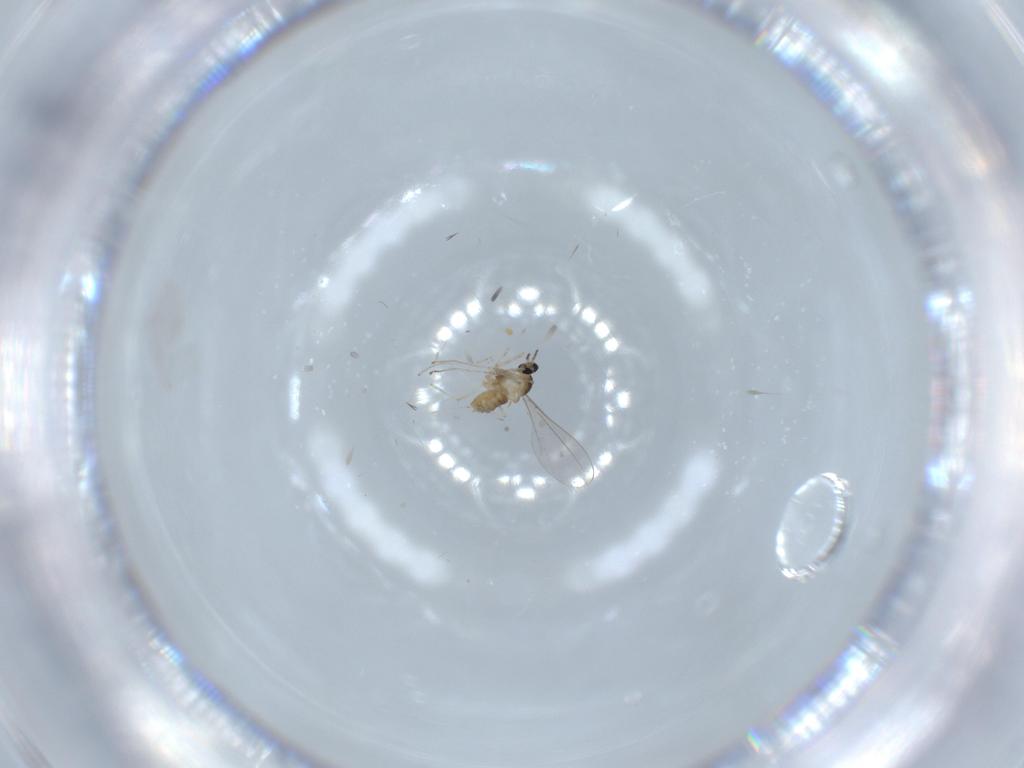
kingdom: Animalia
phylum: Arthropoda
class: Insecta
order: Diptera
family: Cecidomyiidae
